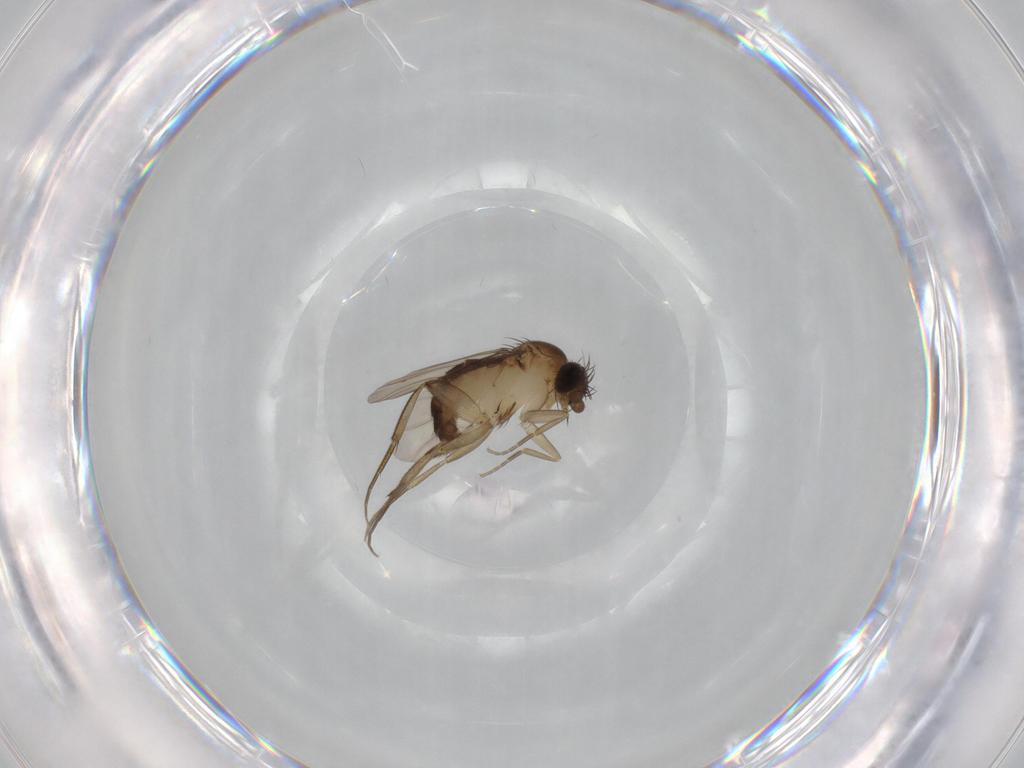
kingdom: Animalia
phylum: Arthropoda
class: Insecta
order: Diptera
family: Phoridae
